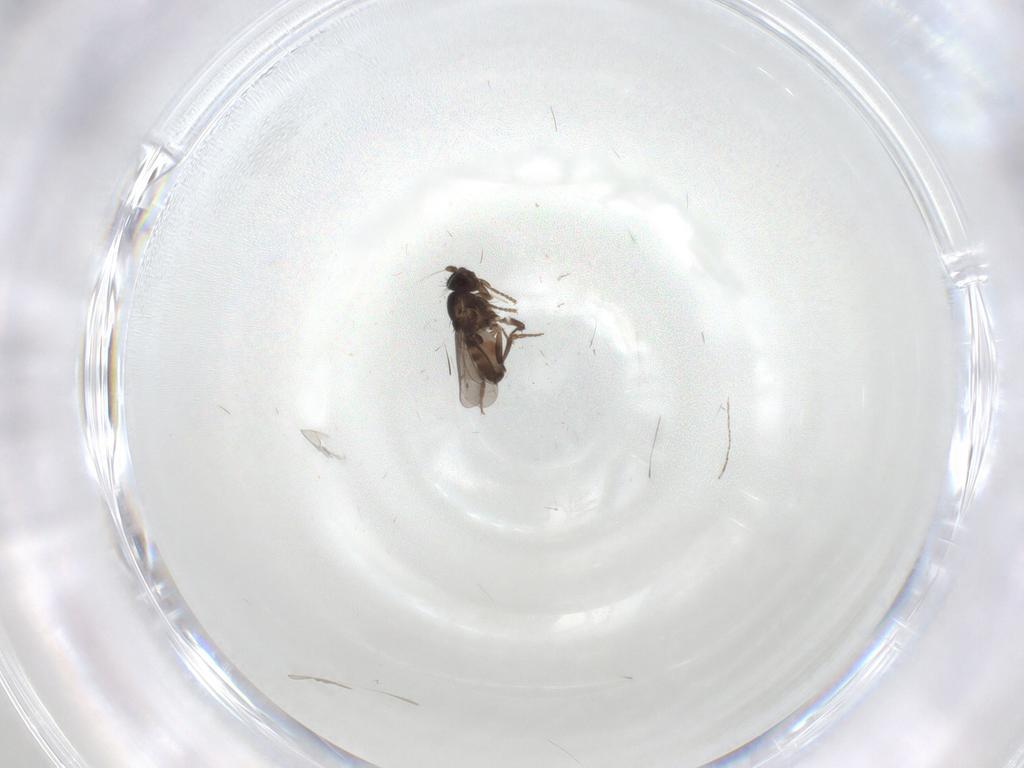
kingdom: Animalia
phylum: Arthropoda
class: Insecta
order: Diptera
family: Sphaeroceridae
